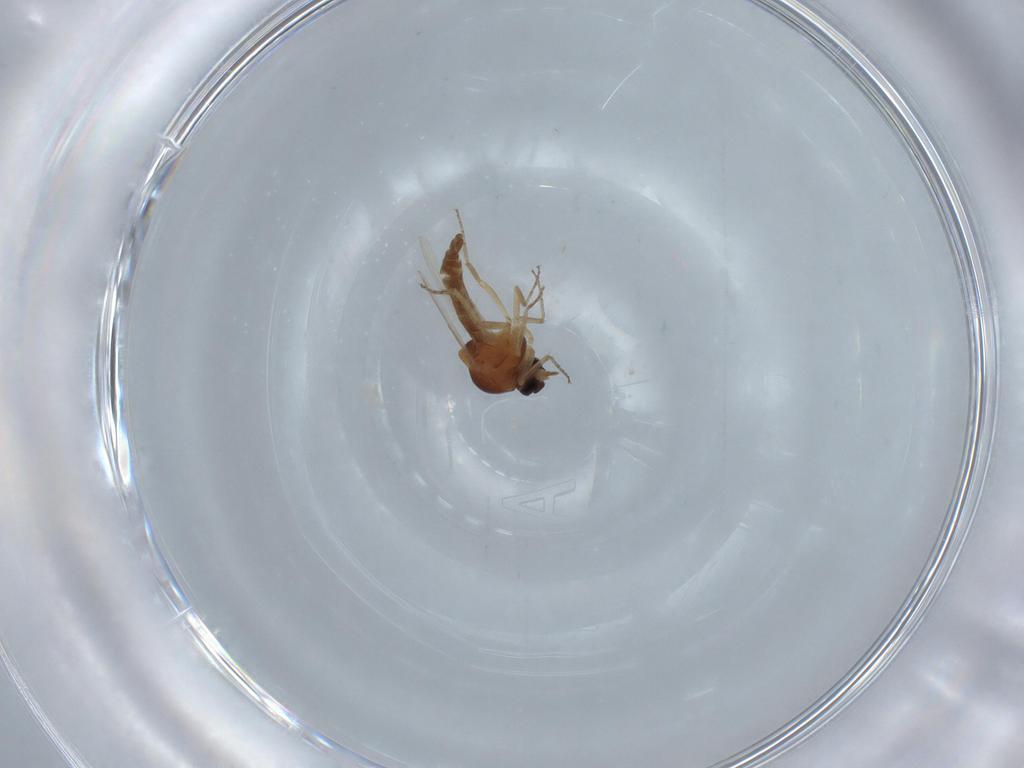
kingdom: Animalia
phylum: Arthropoda
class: Insecta
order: Diptera
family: Ceratopogonidae
